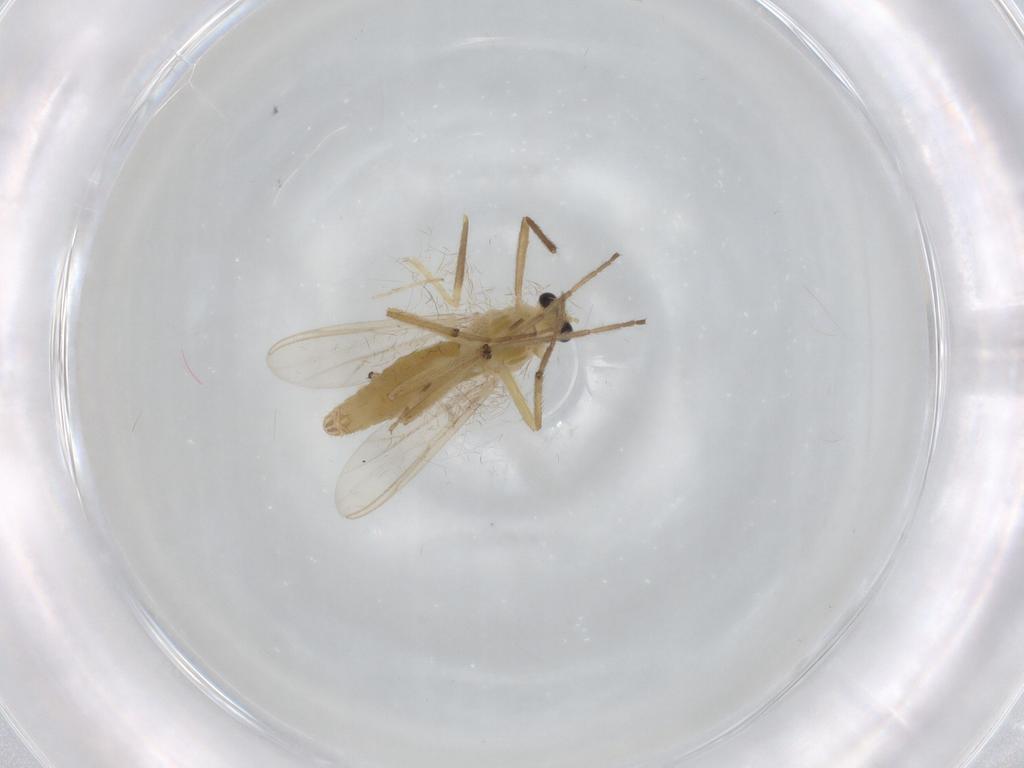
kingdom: Animalia
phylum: Arthropoda
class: Insecta
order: Diptera
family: Chironomidae
